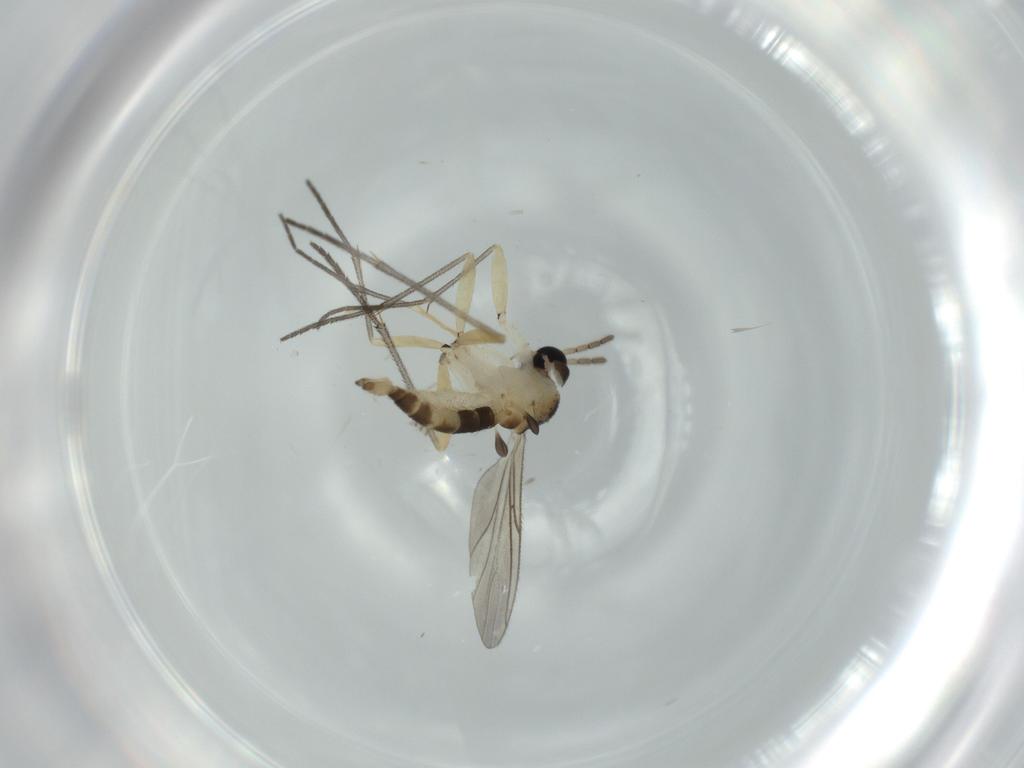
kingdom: Animalia
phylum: Arthropoda
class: Insecta
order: Diptera
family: Sciaridae
